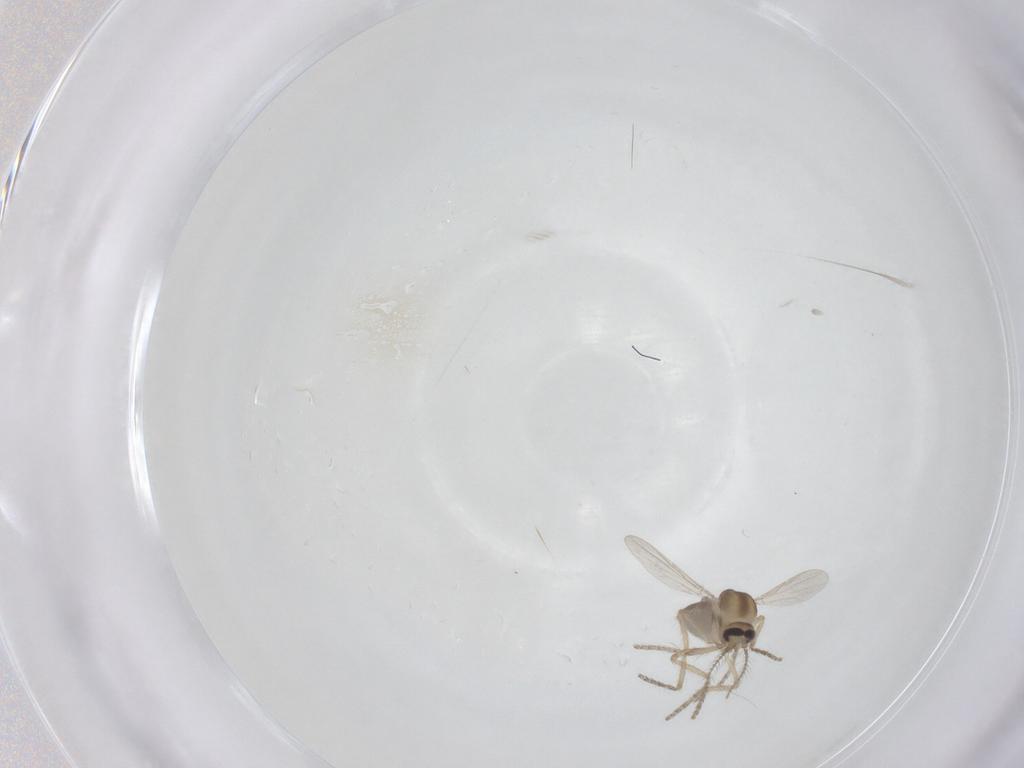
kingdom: Animalia
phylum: Arthropoda
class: Insecta
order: Diptera
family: Ceratopogonidae
